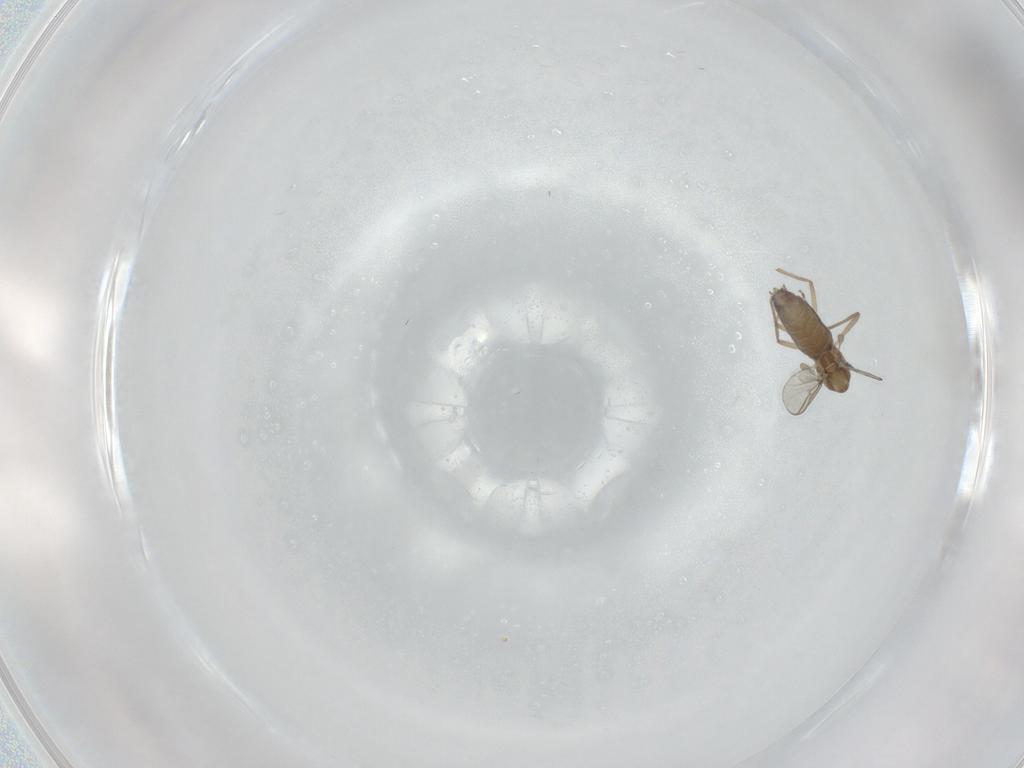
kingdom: Animalia
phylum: Arthropoda
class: Insecta
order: Diptera
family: Chironomidae
